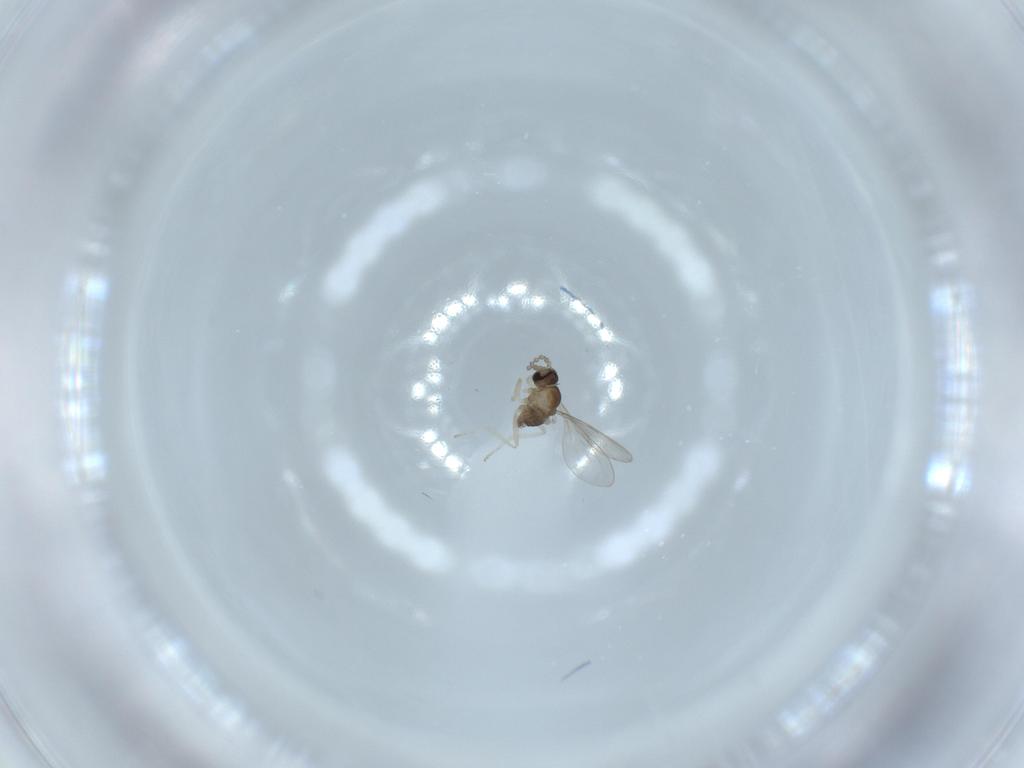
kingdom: Animalia
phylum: Arthropoda
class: Insecta
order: Diptera
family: Cecidomyiidae
